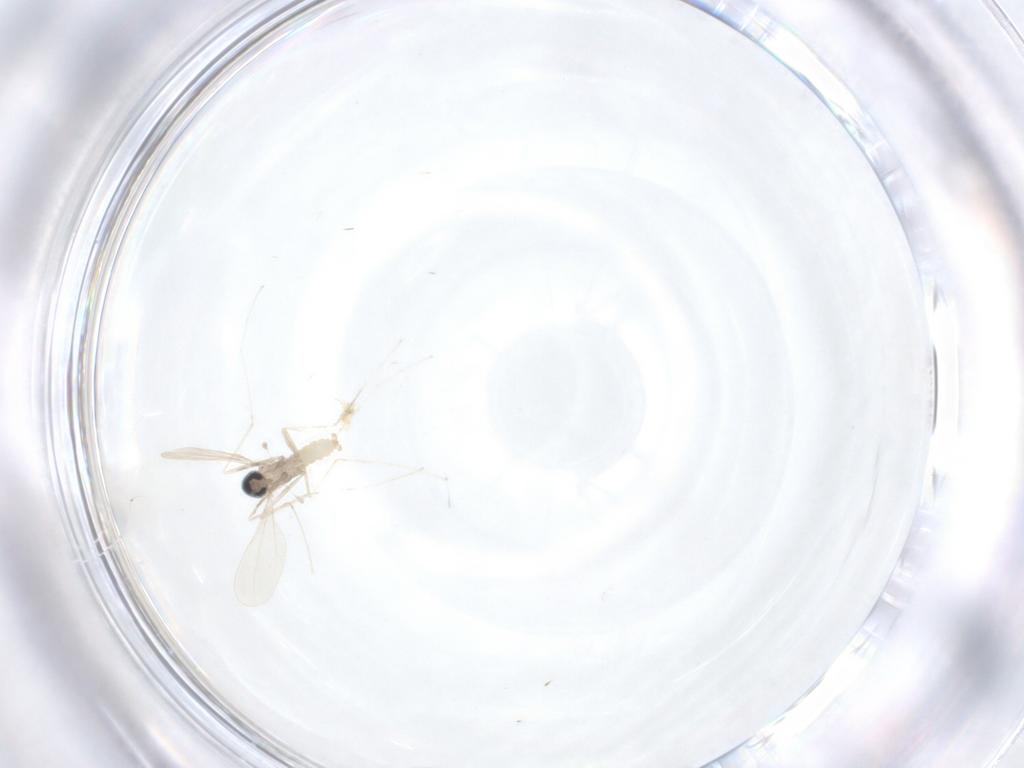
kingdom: Animalia
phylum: Arthropoda
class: Insecta
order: Diptera
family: Cecidomyiidae
